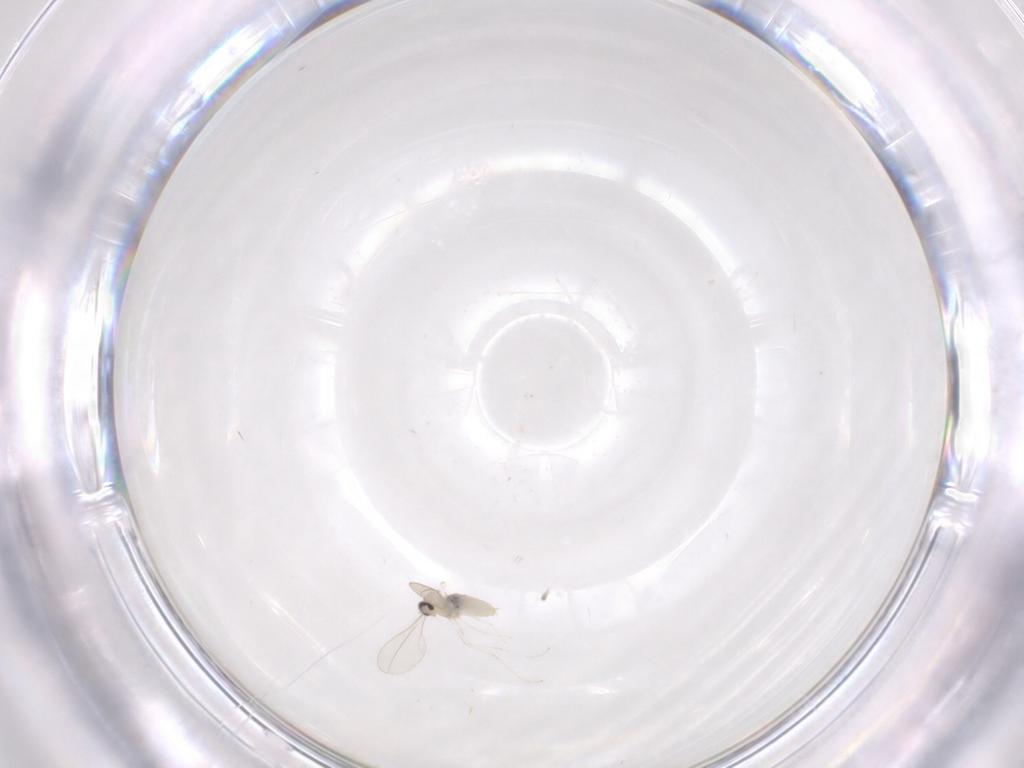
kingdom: Animalia
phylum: Arthropoda
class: Insecta
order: Diptera
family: Cecidomyiidae
